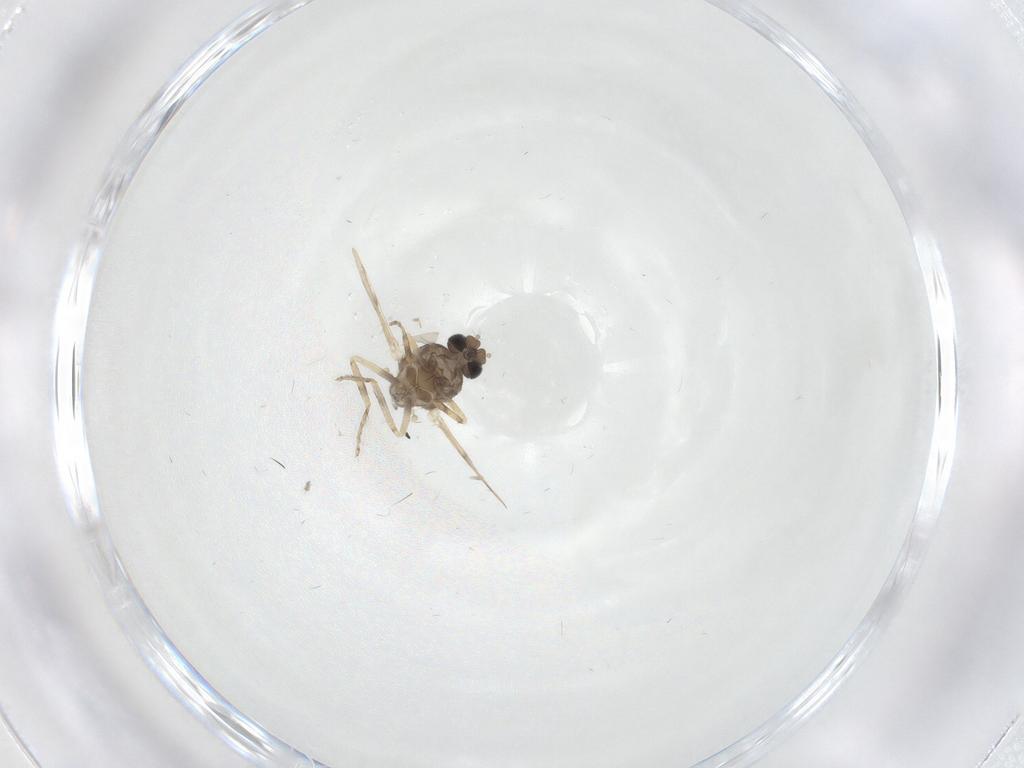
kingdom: Animalia
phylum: Arthropoda
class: Insecta
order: Diptera
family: Ceratopogonidae
